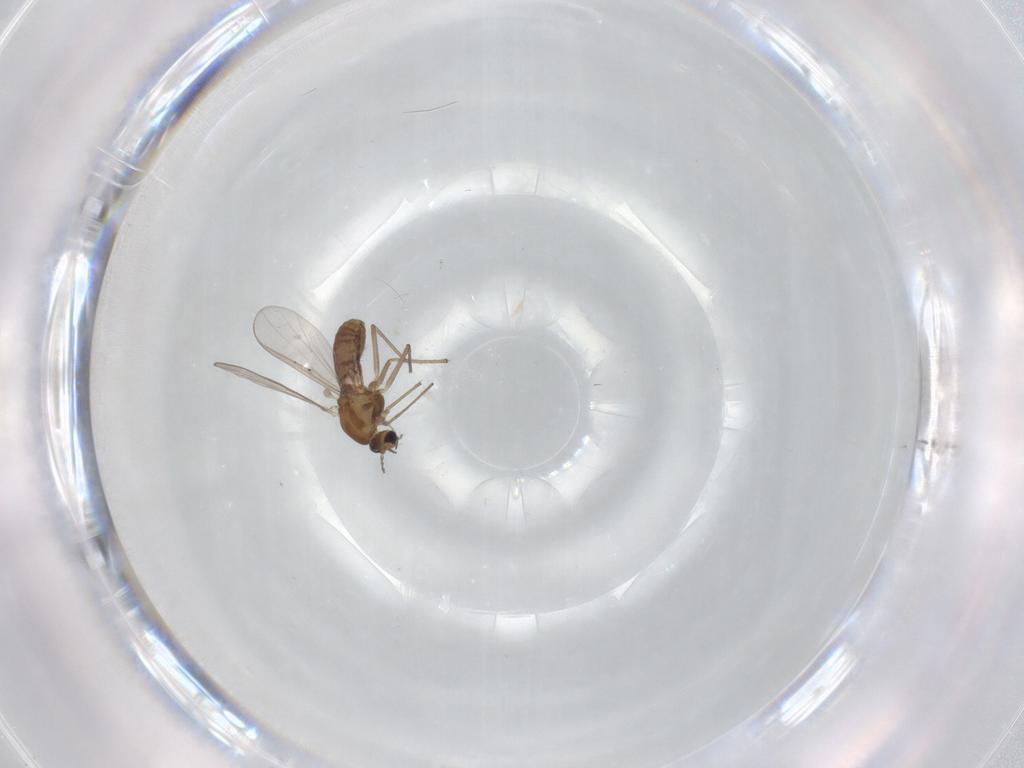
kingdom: Animalia
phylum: Arthropoda
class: Insecta
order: Diptera
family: Chironomidae
